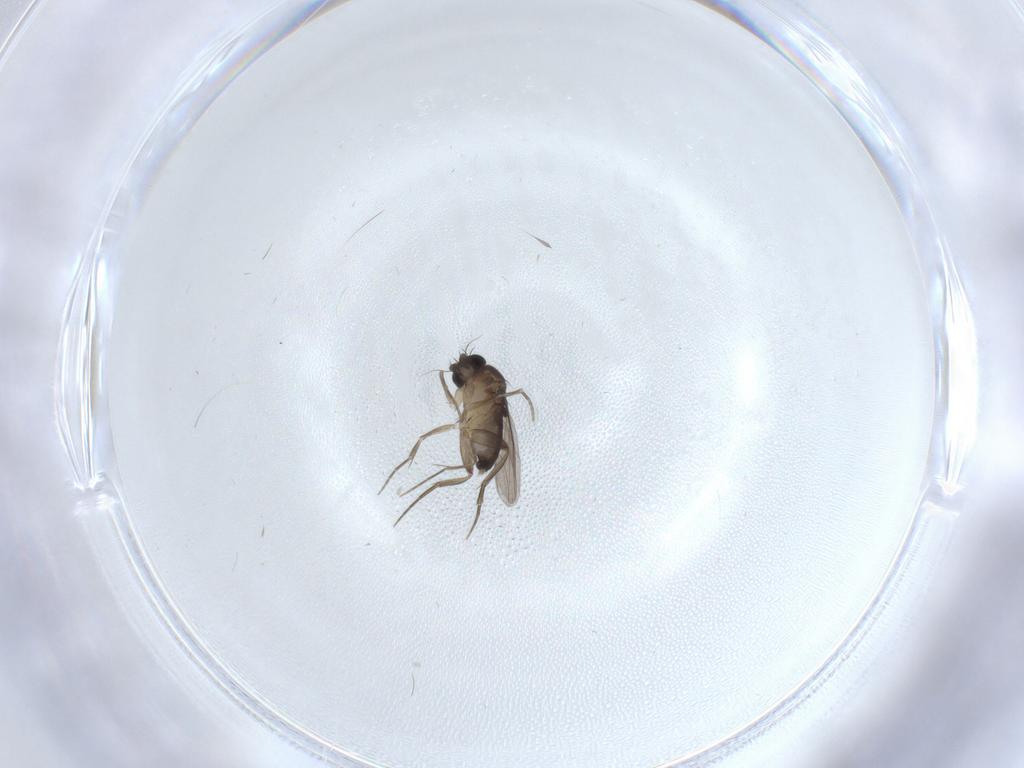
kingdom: Animalia
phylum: Arthropoda
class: Insecta
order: Diptera
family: Phoridae
